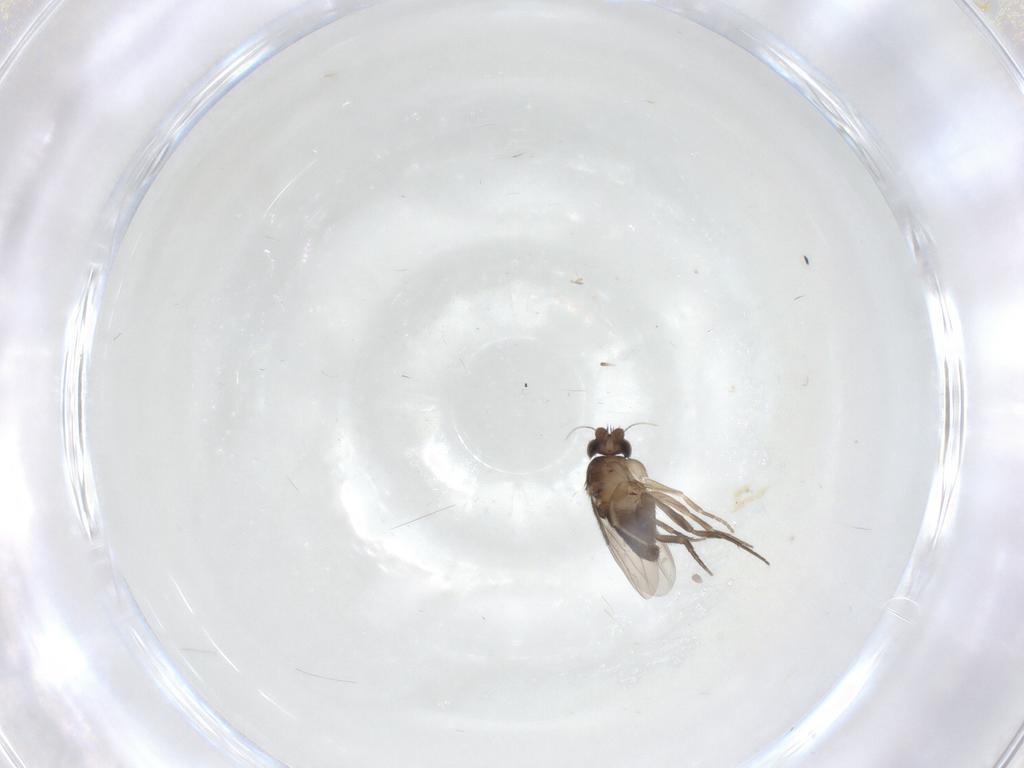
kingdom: Animalia
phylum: Arthropoda
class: Insecta
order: Diptera
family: Phoridae
